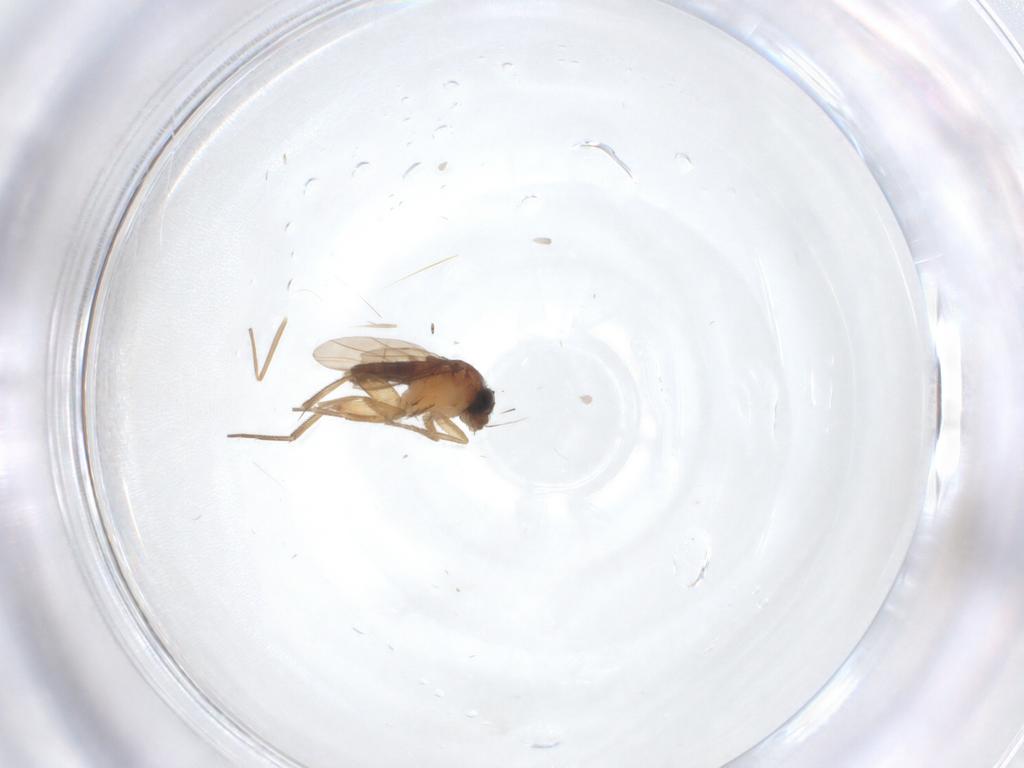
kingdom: Animalia
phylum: Arthropoda
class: Insecta
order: Diptera
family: Phoridae
